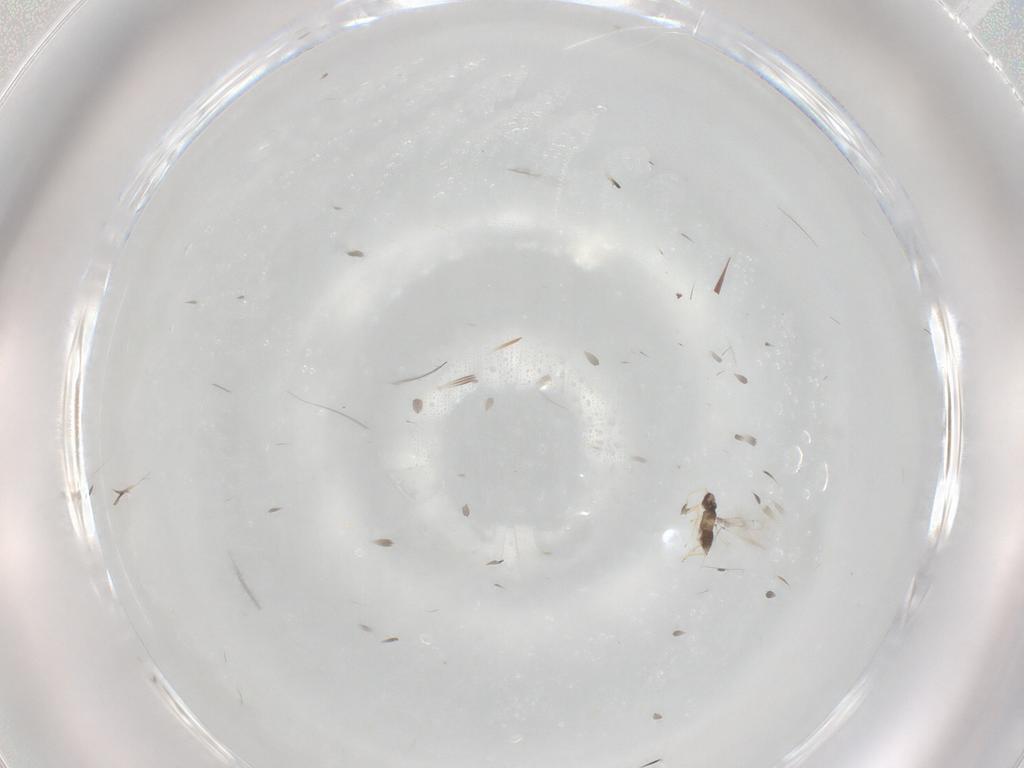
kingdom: Animalia
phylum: Arthropoda
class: Insecta
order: Hymenoptera
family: Mymaridae
